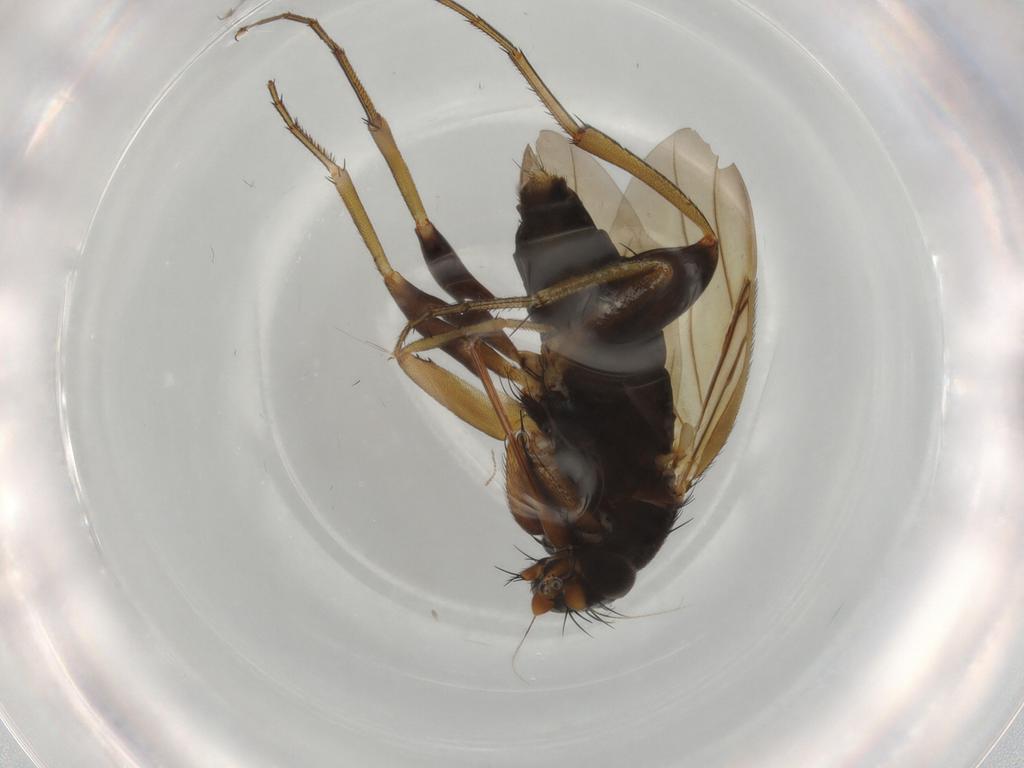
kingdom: Animalia
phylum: Arthropoda
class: Insecta
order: Diptera
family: Phoridae
